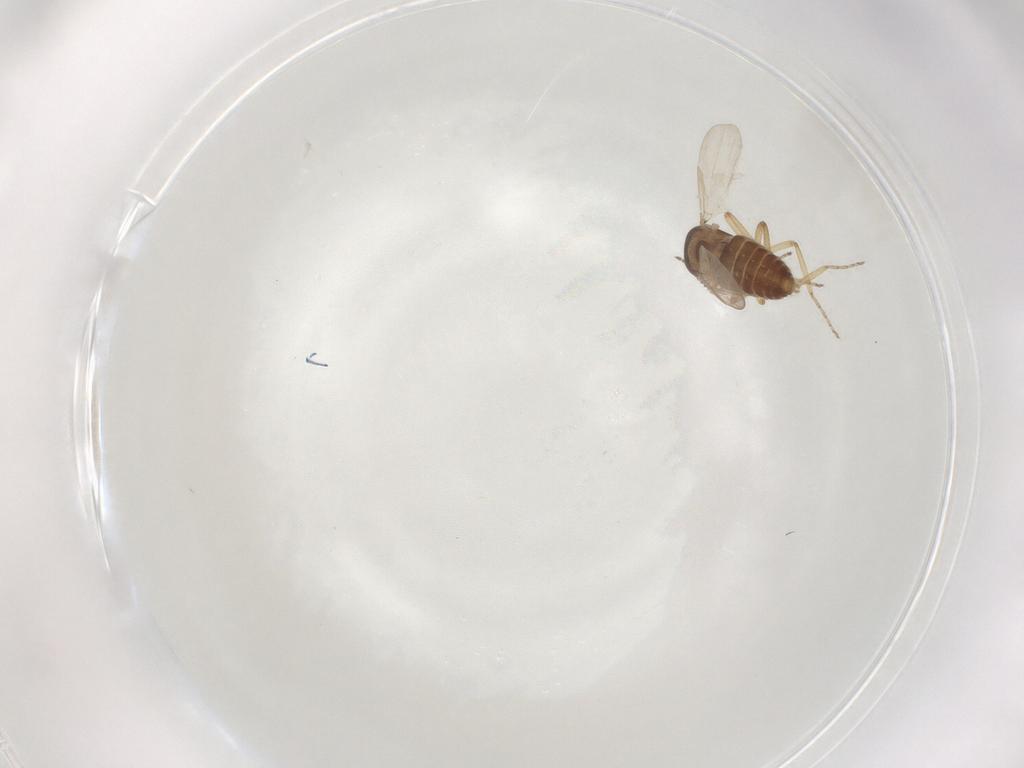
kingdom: Animalia
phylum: Arthropoda
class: Insecta
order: Diptera
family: Ceratopogonidae
